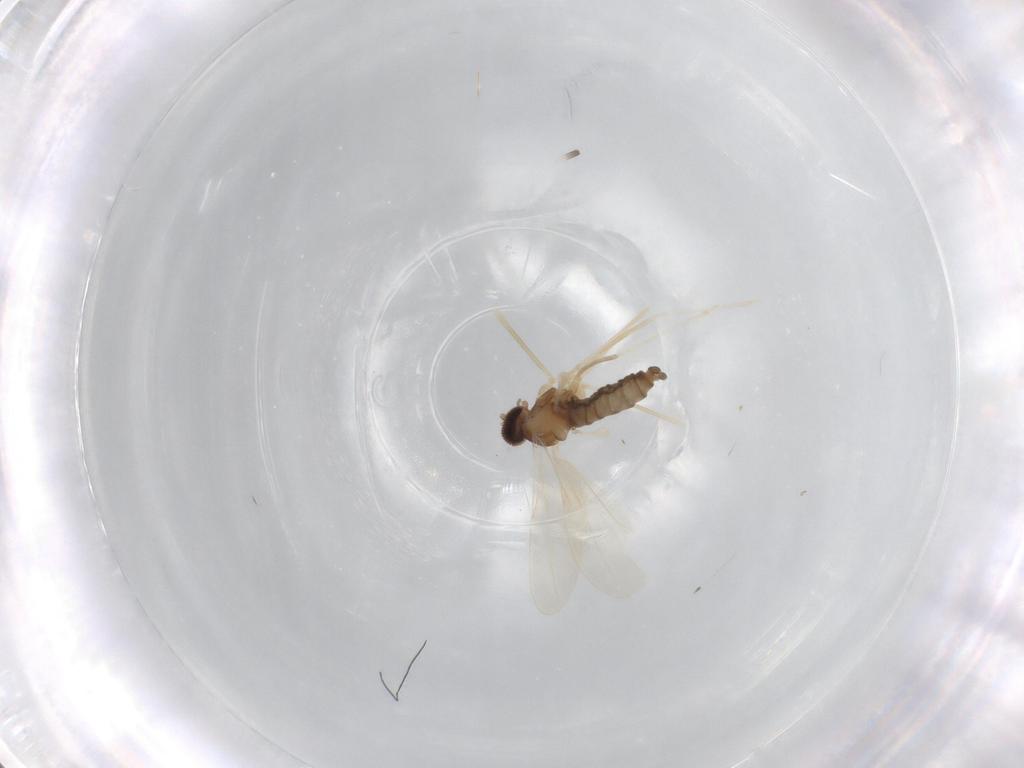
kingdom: Animalia
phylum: Arthropoda
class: Insecta
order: Diptera
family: Cecidomyiidae
